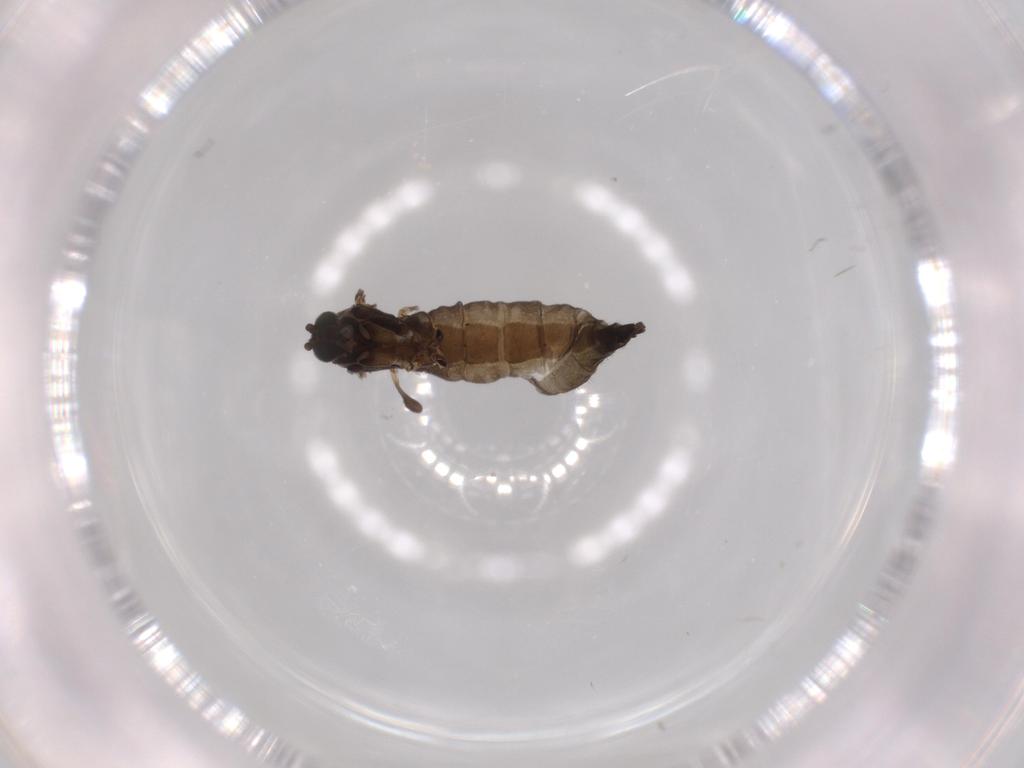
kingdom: Animalia
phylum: Arthropoda
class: Insecta
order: Diptera
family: Sciaridae
